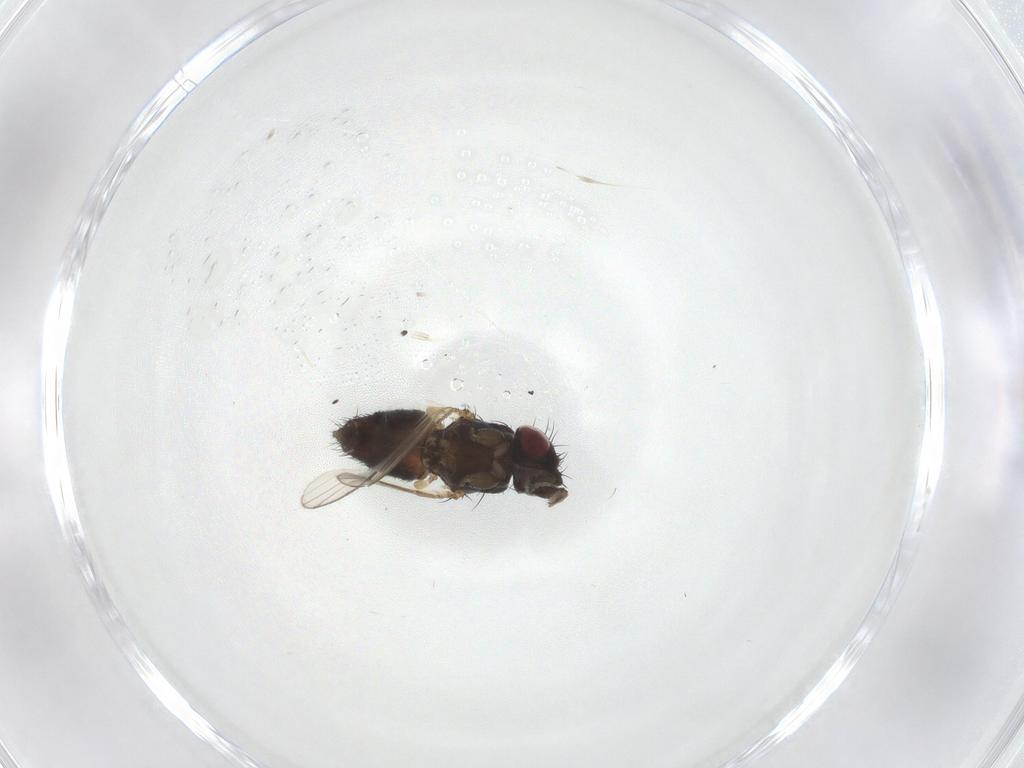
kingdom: Animalia
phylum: Arthropoda
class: Insecta
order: Diptera
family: Milichiidae
